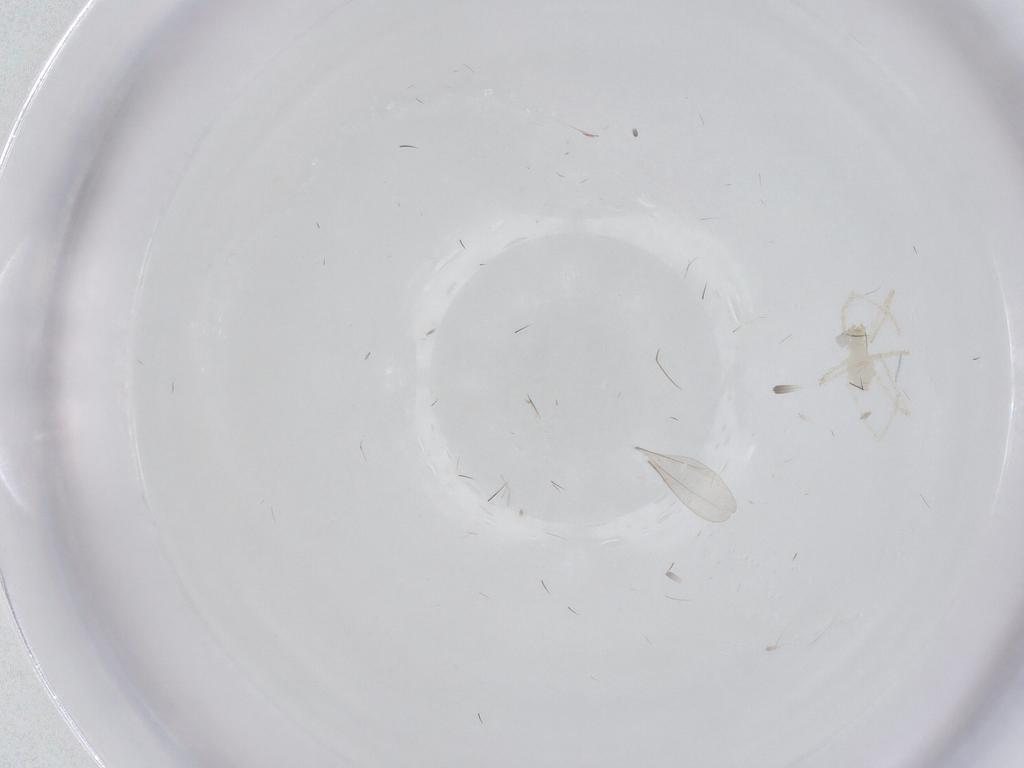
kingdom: Animalia
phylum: Arthropoda
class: Insecta
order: Diptera
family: Cecidomyiidae
